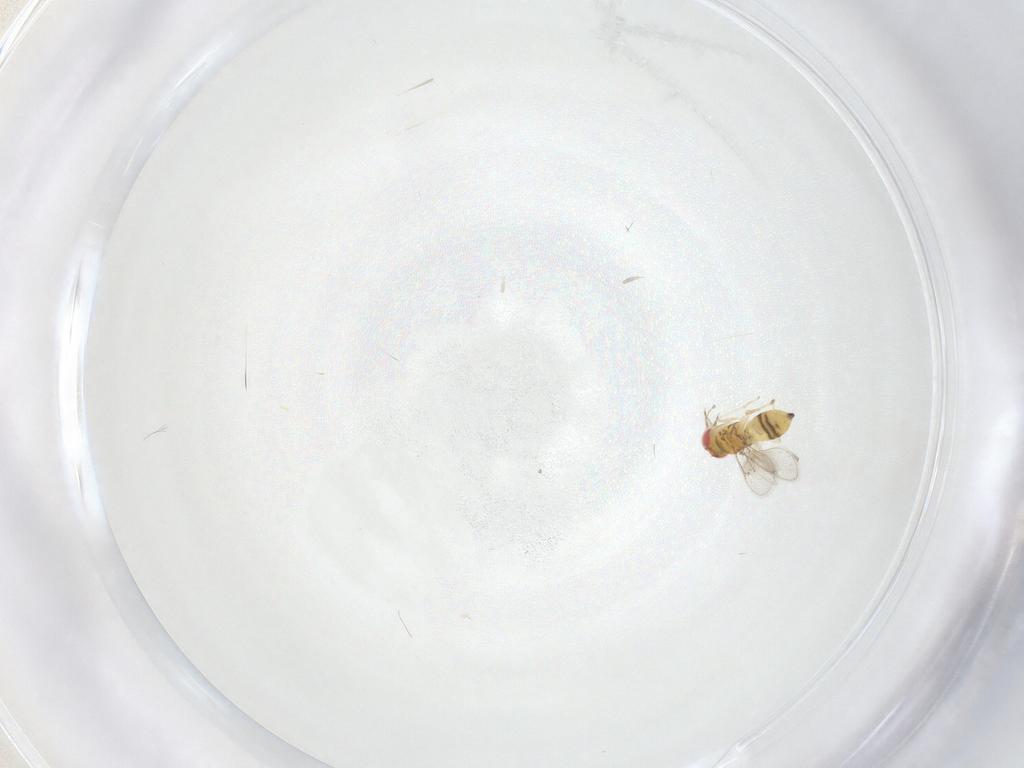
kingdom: Animalia
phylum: Arthropoda
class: Insecta
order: Hymenoptera
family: Eulophidae
